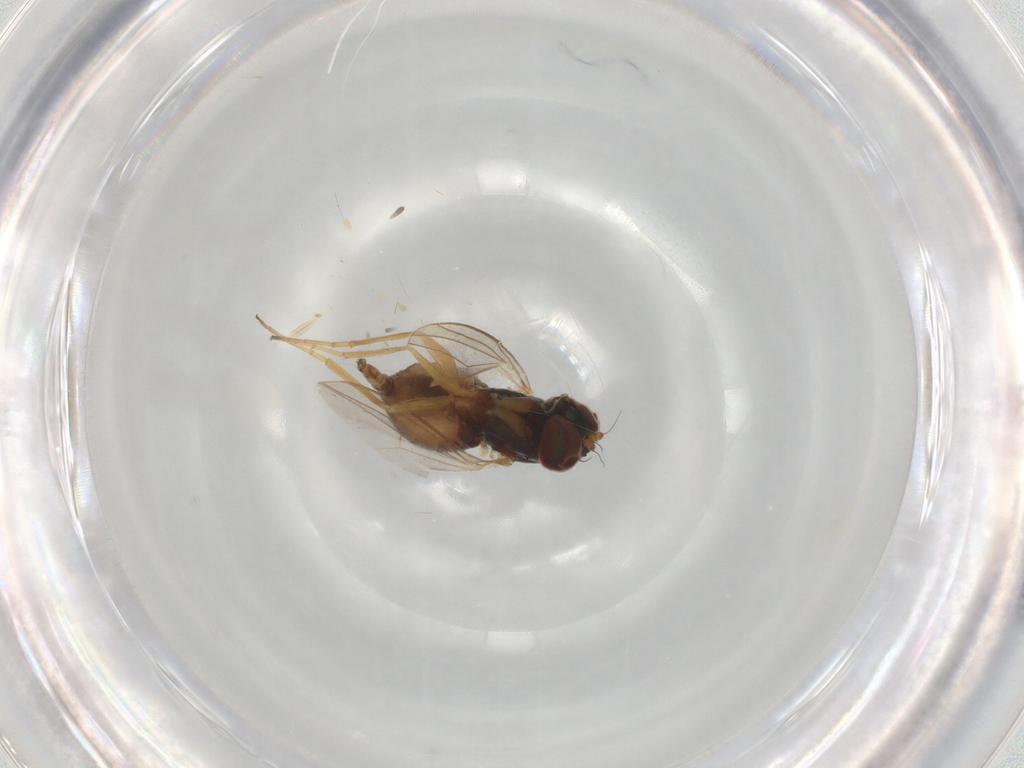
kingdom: Animalia
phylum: Arthropoda
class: Insecta
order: Diptera
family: Dolichopodidae
